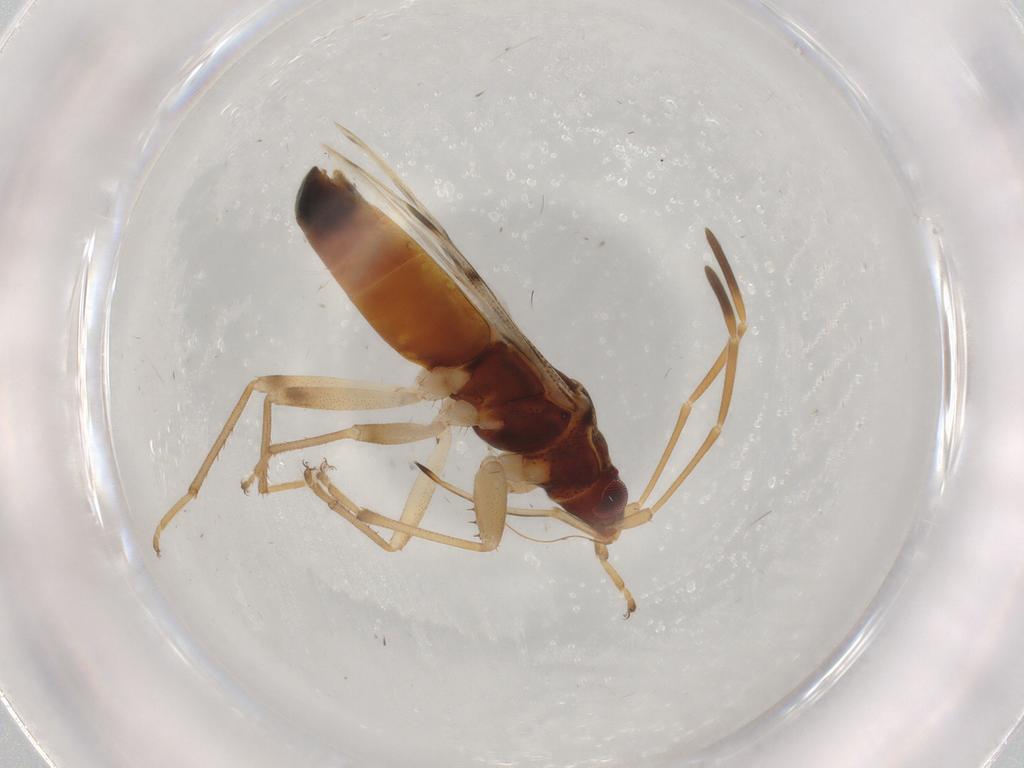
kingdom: Animalia
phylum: Arthropoda
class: Insecta
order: Hemiptera
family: Rhyparochromidae
